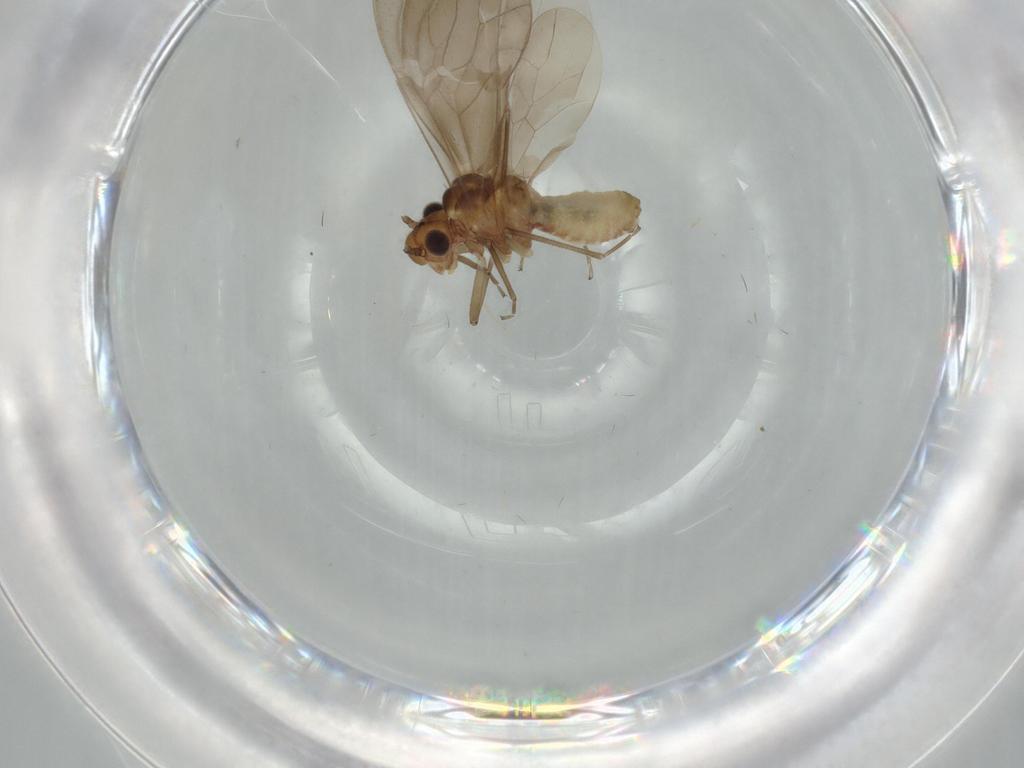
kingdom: Animalia
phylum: Arthropoda
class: Insecta
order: Psocodea
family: Caeciliusidae
